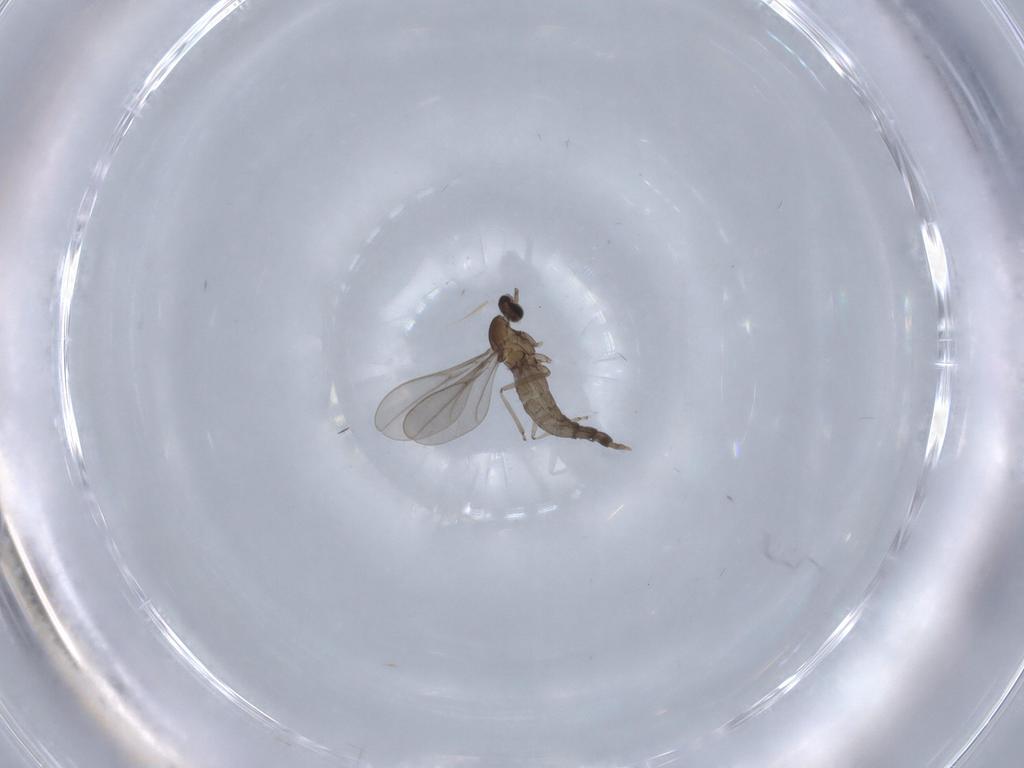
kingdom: Animalia
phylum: Arthropoda
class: Insecta
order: Diptera
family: Cecidomyiidae
